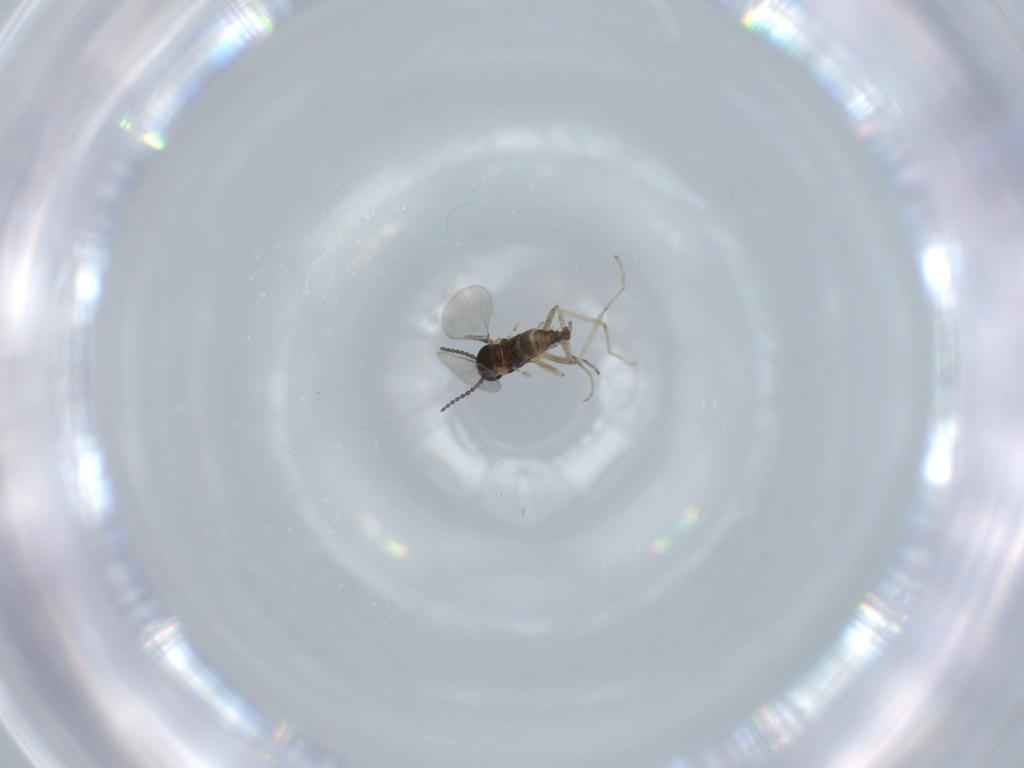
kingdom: Animalia
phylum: Arthropoda
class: Insecta
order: Diptera
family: Cecidomyiidae
